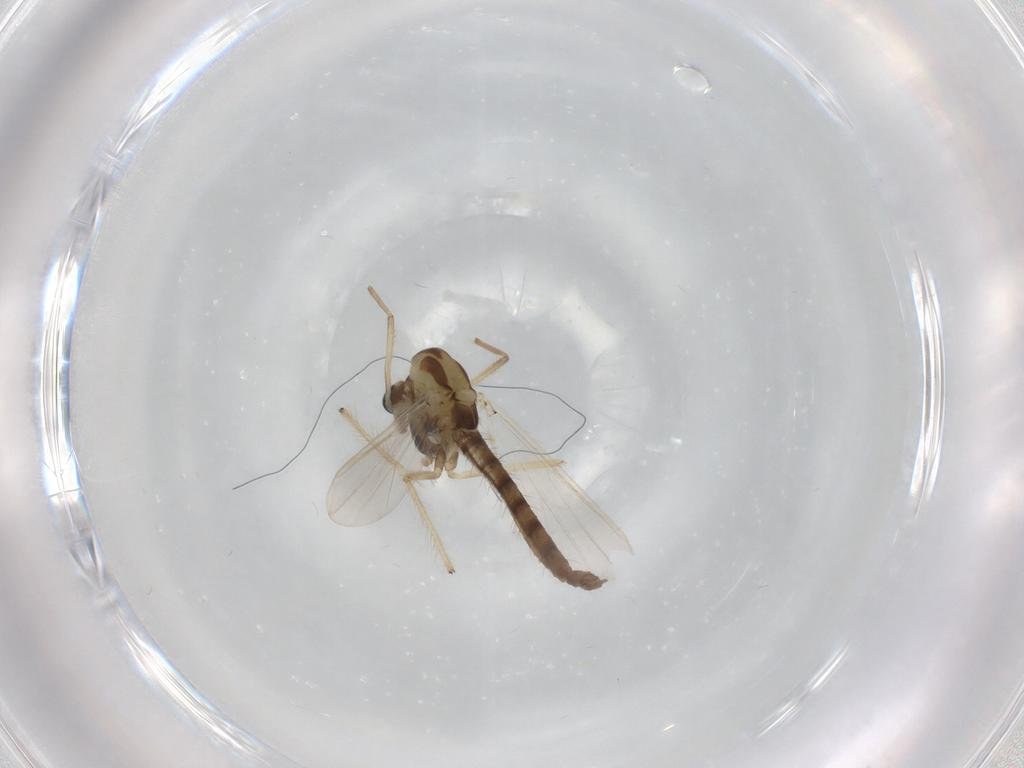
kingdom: Animalia
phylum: Arthropoda
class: Insecta
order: Diptera
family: Chironomidae
